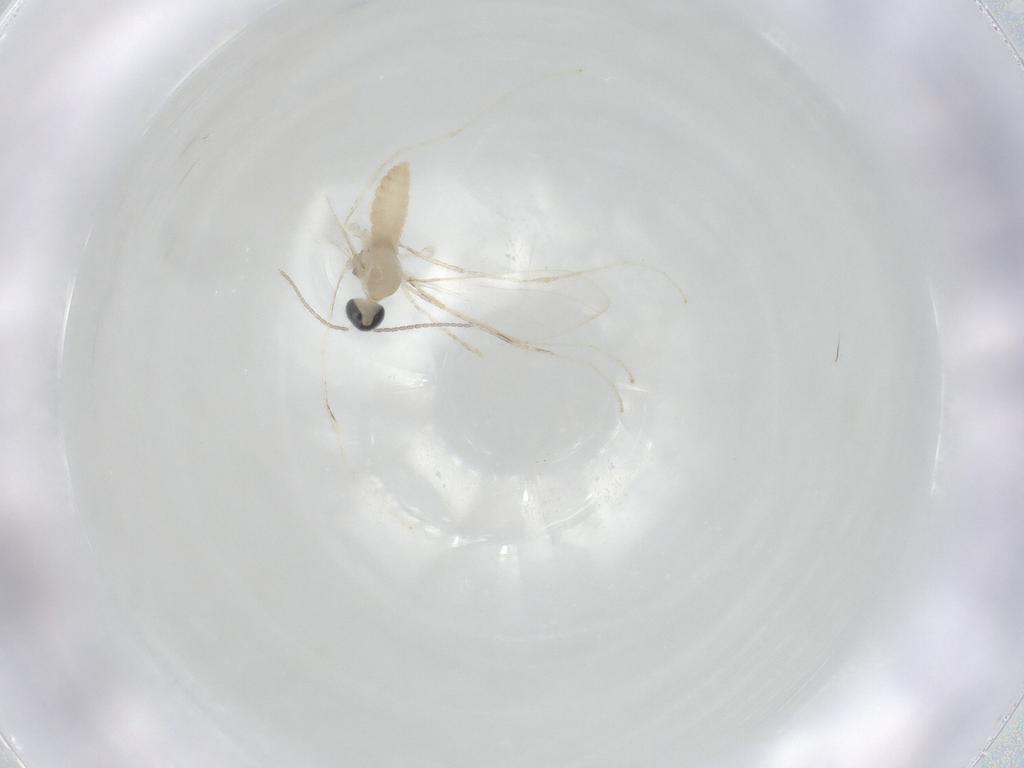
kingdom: Animalia
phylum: Arthropoda
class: Insecta
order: Diptera
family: Cecidomyiidae
